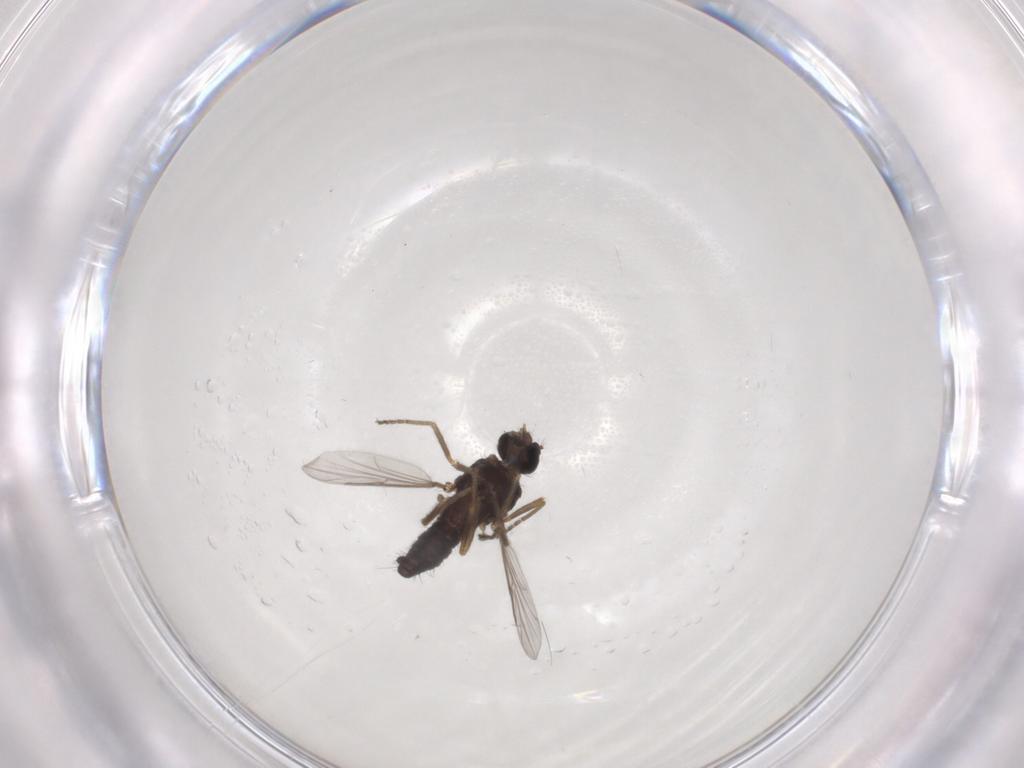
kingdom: Animalia
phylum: Arthropoda
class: Insecta
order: Diptera
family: Ceratopogonidae
